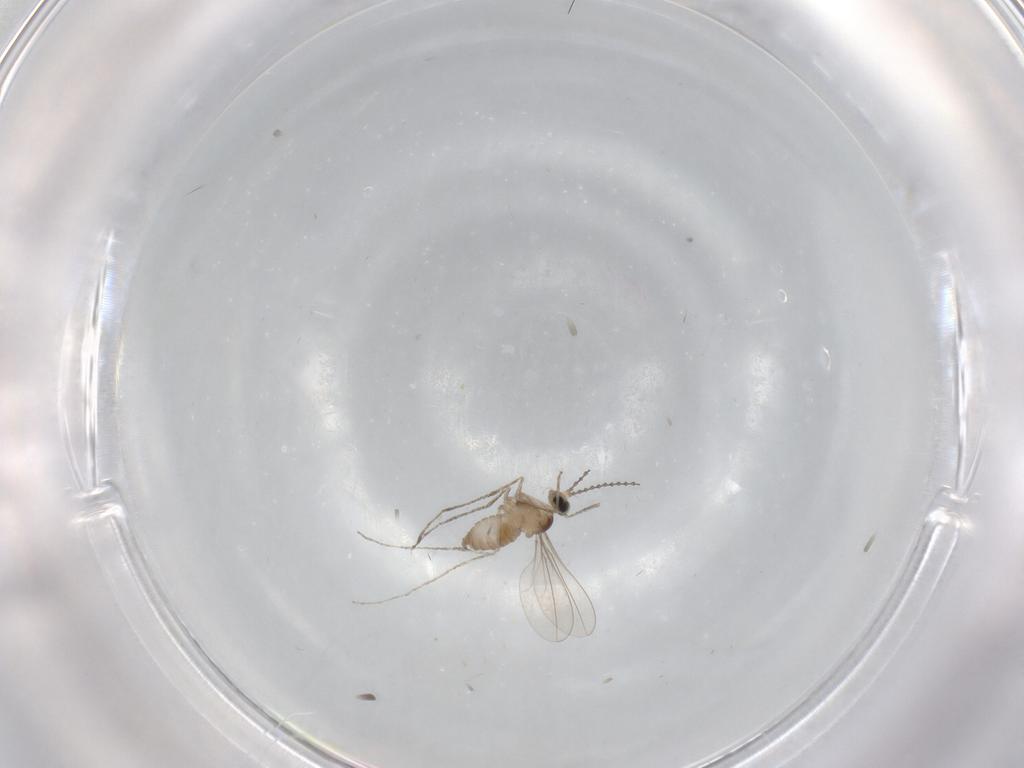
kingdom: Animalia
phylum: Arthropoda
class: Insecta
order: Diptera
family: Cecidomyiidae
